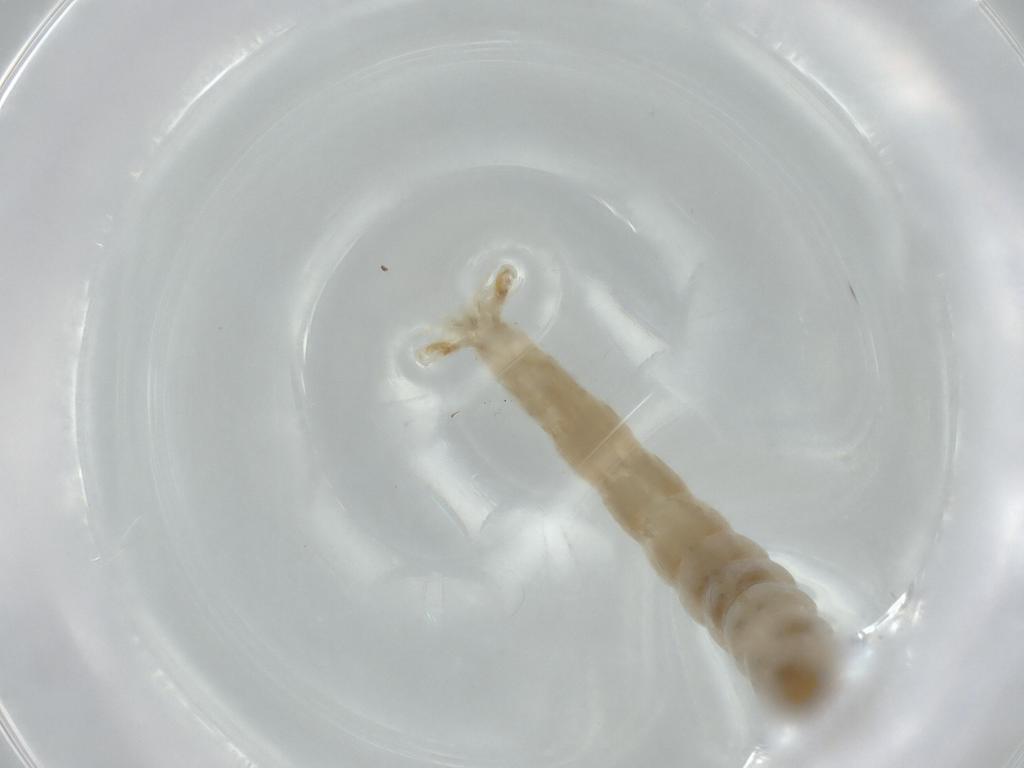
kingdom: Animalia
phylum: Arthropoda
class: Insecta
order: Diptera
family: Chironomidae
